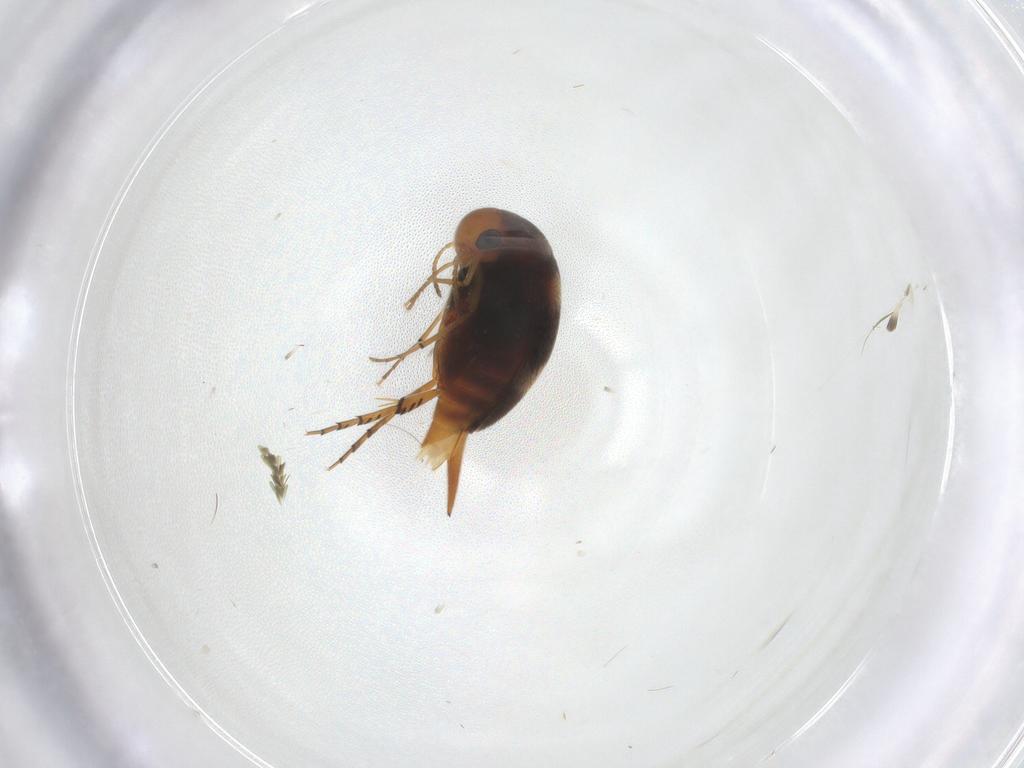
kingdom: Animalia
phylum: Arthropoda
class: Insecta
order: Coleoptera
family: Mordellidae
